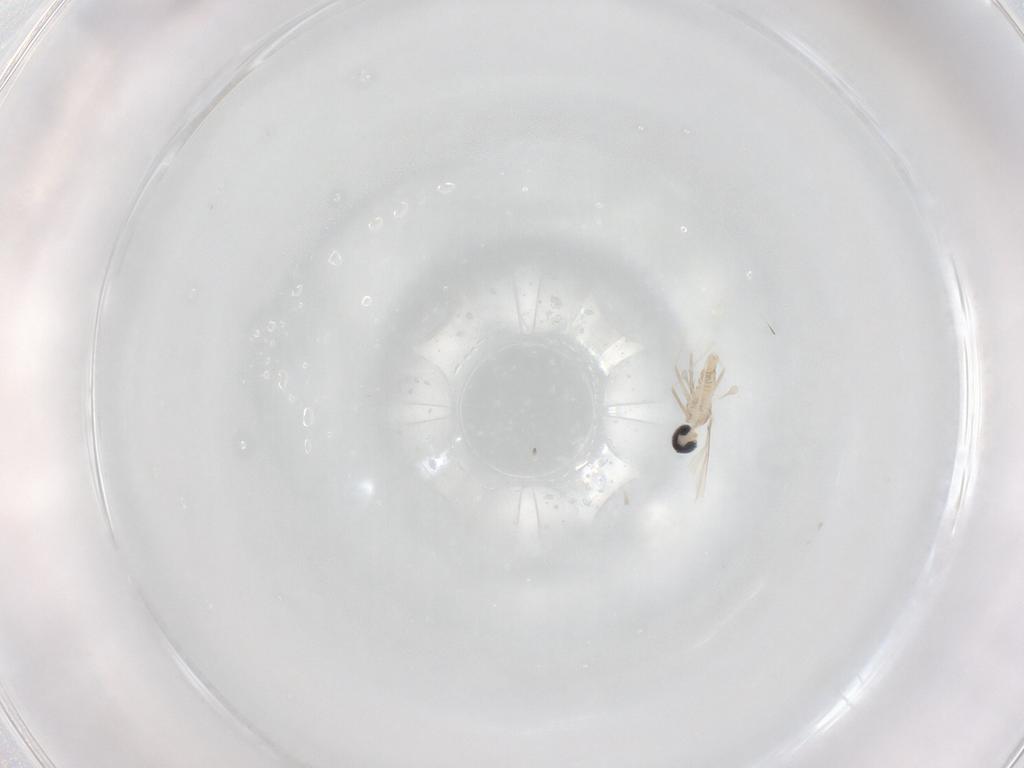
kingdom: Animalia
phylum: Arthropoda
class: Insecta
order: Diptera
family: Cecidomyiidae
